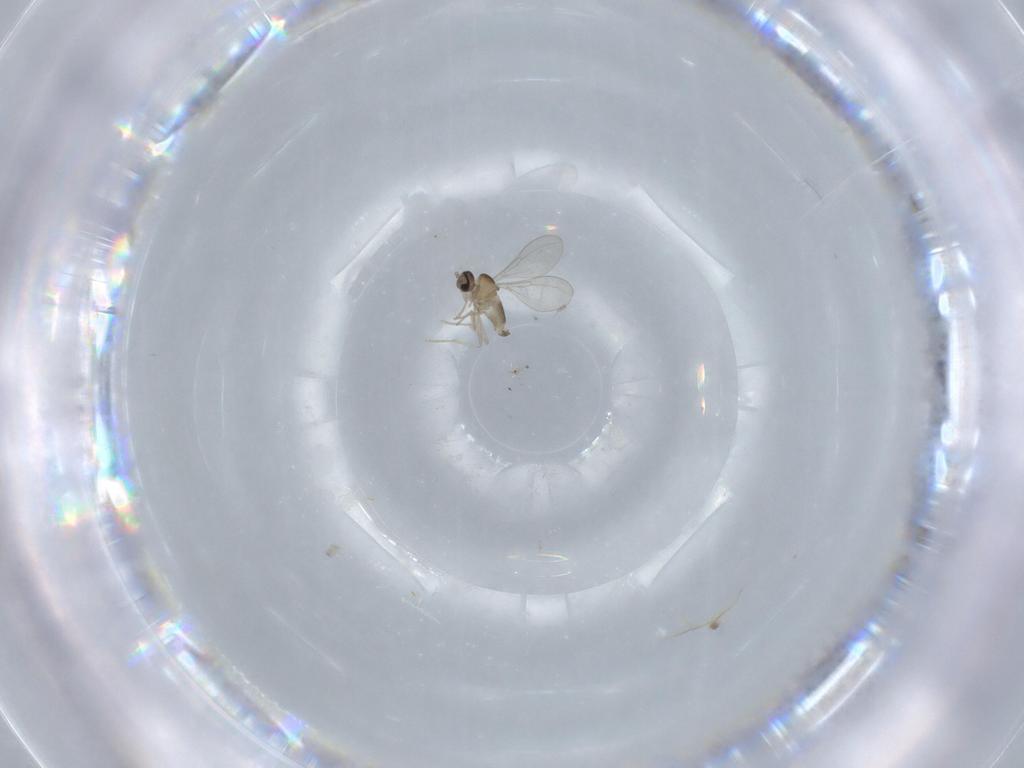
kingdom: Animalia
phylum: Arthropoda
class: Insecta
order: Diptera
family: Cecidomyiidae
